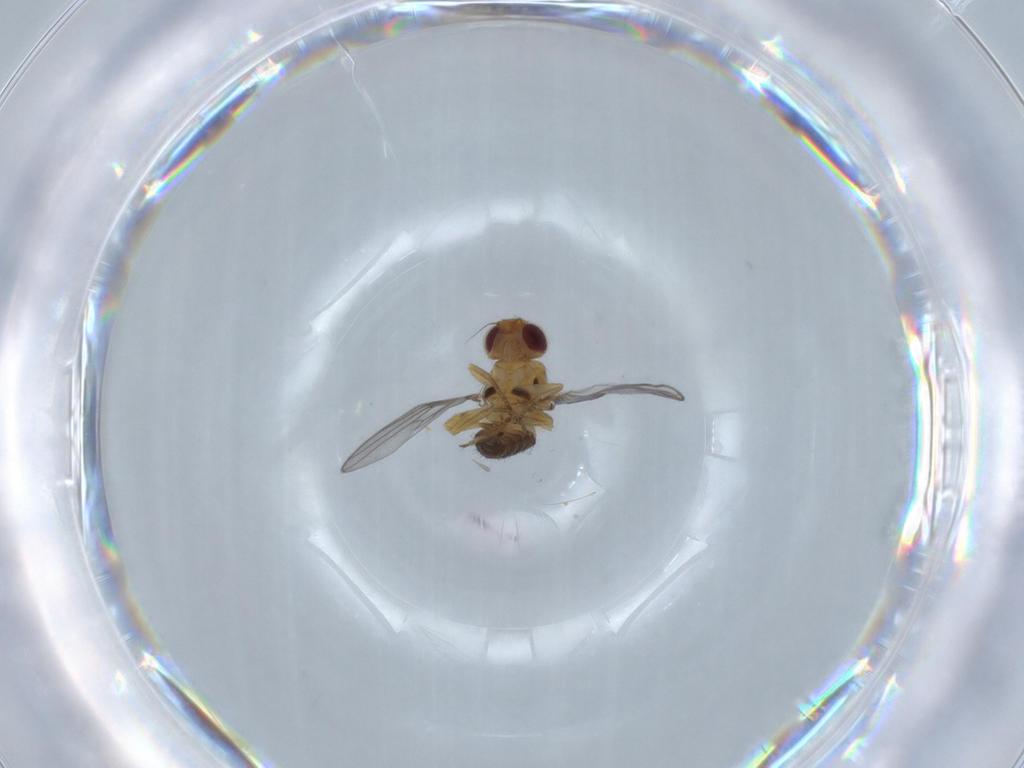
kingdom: Animalia
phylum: Arthropoda
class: Insecta
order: Diptera
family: Chloropidae
